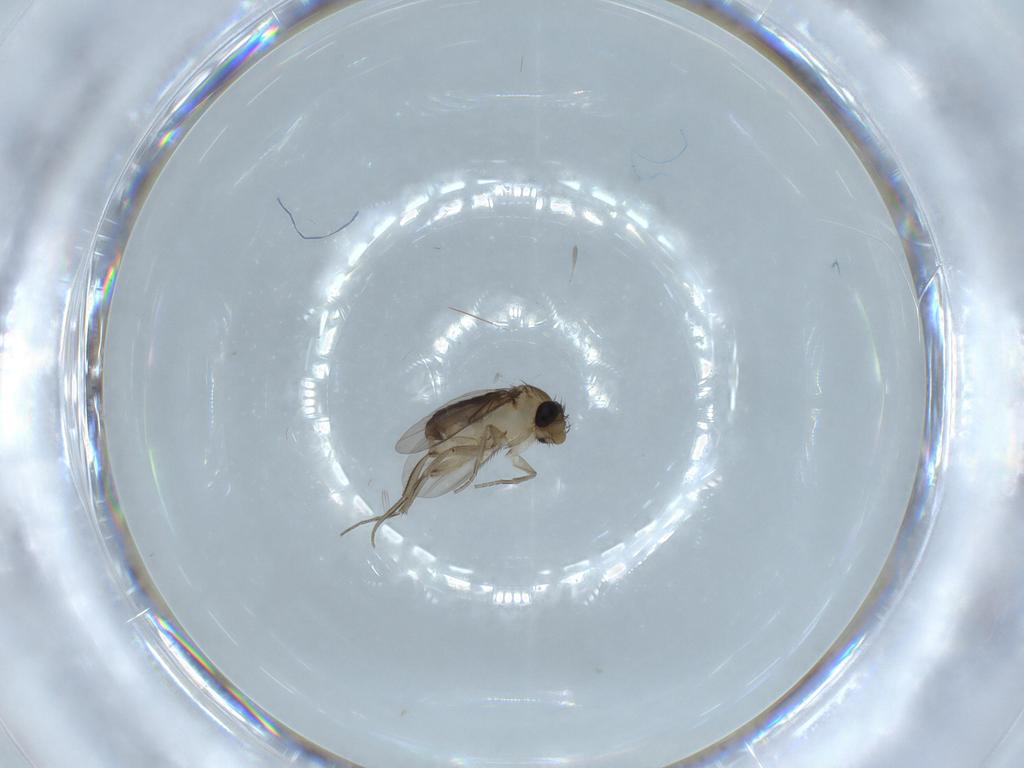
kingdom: Animalia
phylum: Arthropoda
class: Insecta
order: Diptera
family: Phoridae
